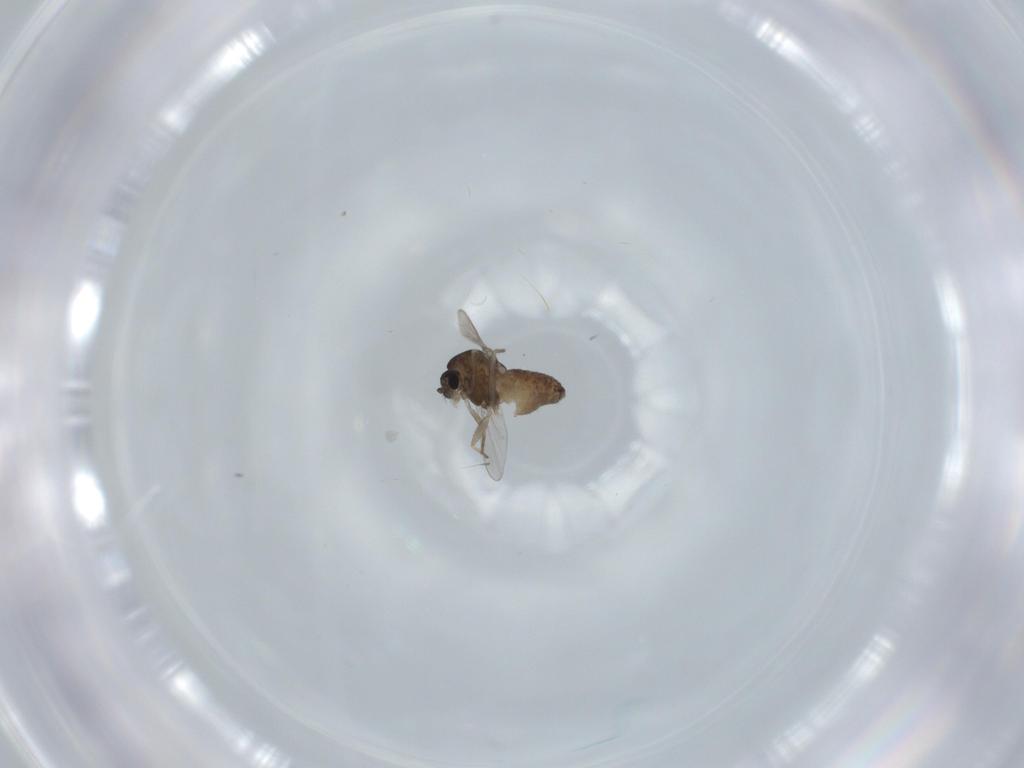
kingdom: Animalia
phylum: Arthropoda
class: Insecta
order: Diptera
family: Chironomidae
